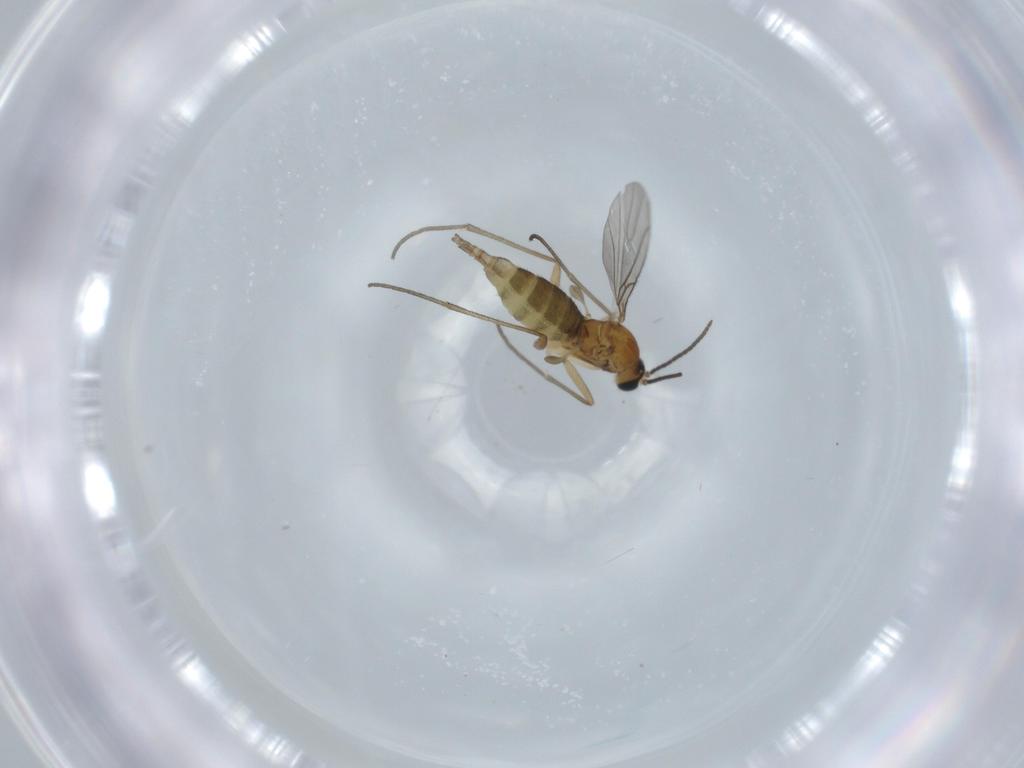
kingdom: Animalia
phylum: Arthropoda
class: Insecta
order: Diptera
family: Sciaridae
